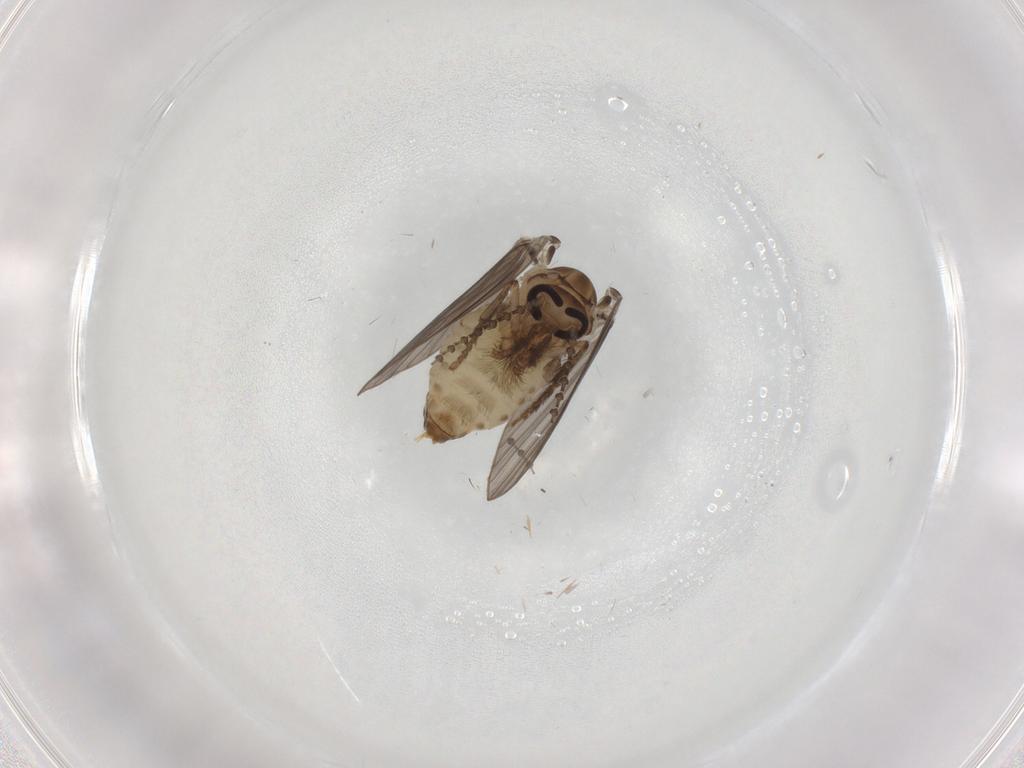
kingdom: Animalia
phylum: Arthropoda
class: Insecta
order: Diptera
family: Psychodidae
